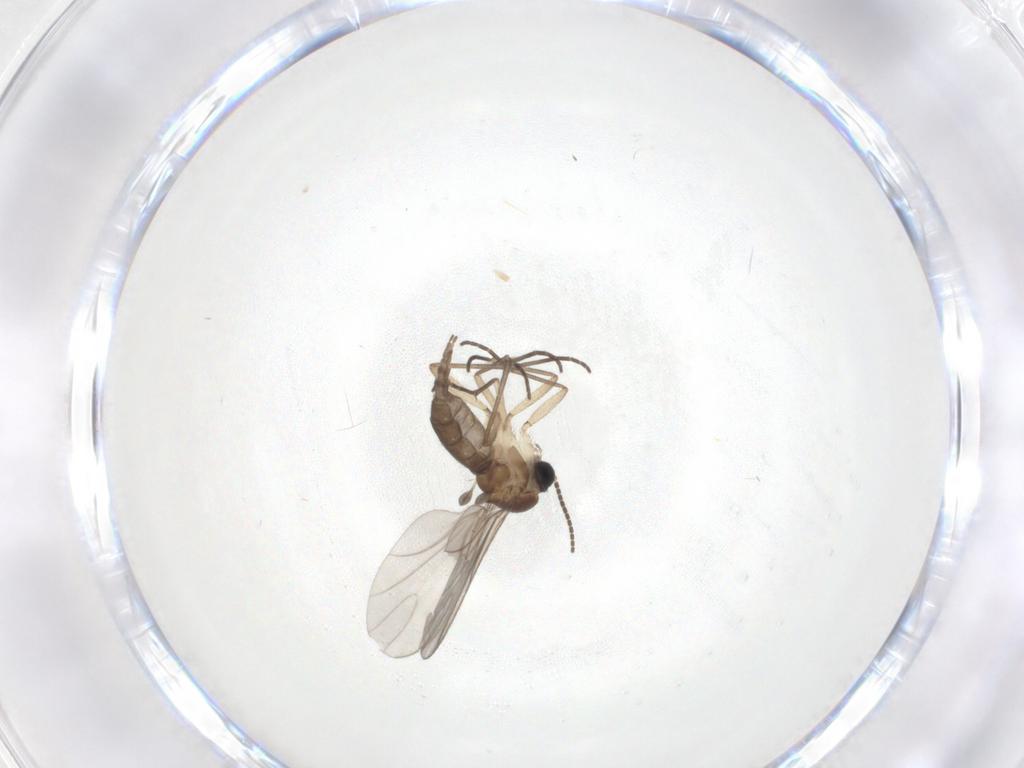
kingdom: Animalia
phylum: Arthropoda
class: Insecta
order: Diptera
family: Sciaridae
